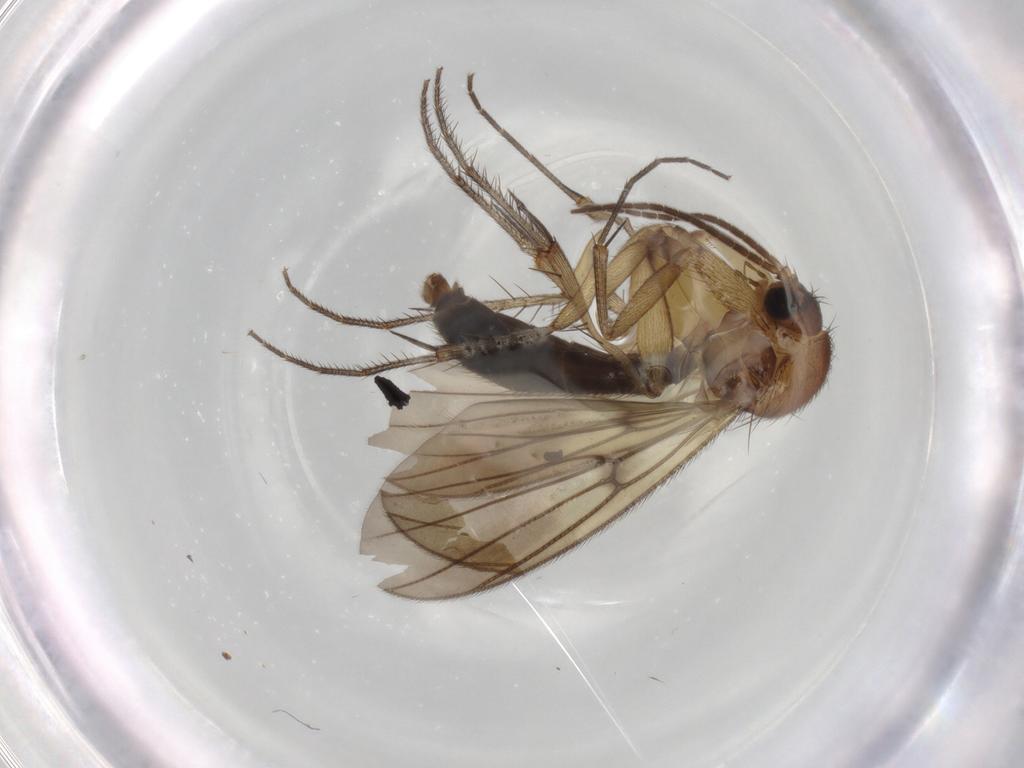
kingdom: Animalia
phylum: Arthropoda
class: Insecta
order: Diptera
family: Mycetophilidae
